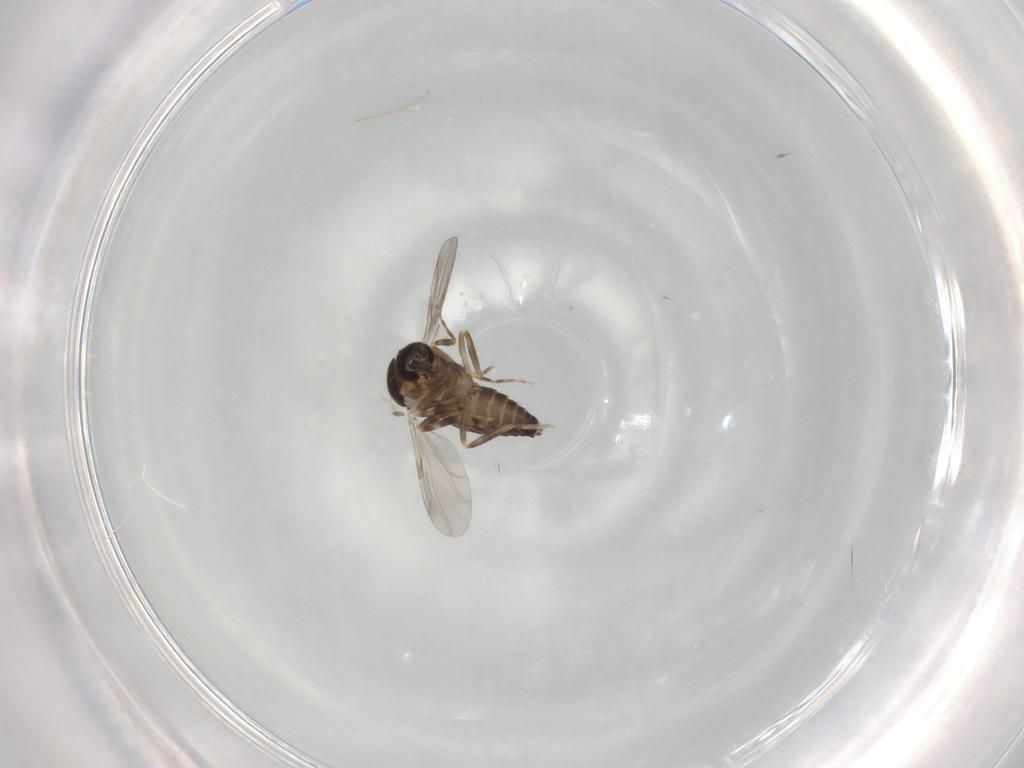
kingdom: Animalia
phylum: Arthropoda
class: Insecta
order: Diptera
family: Ceratopogonidae
